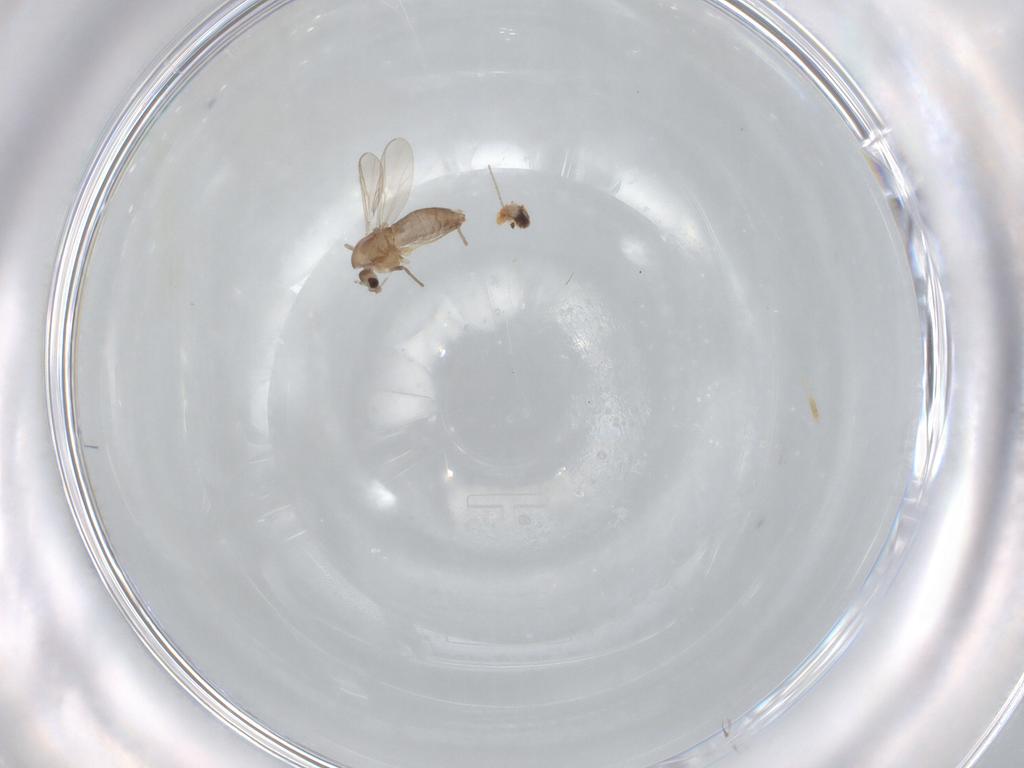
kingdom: Animalia
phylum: Arthropoda
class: Insecta
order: Diptera
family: Chironomidae
